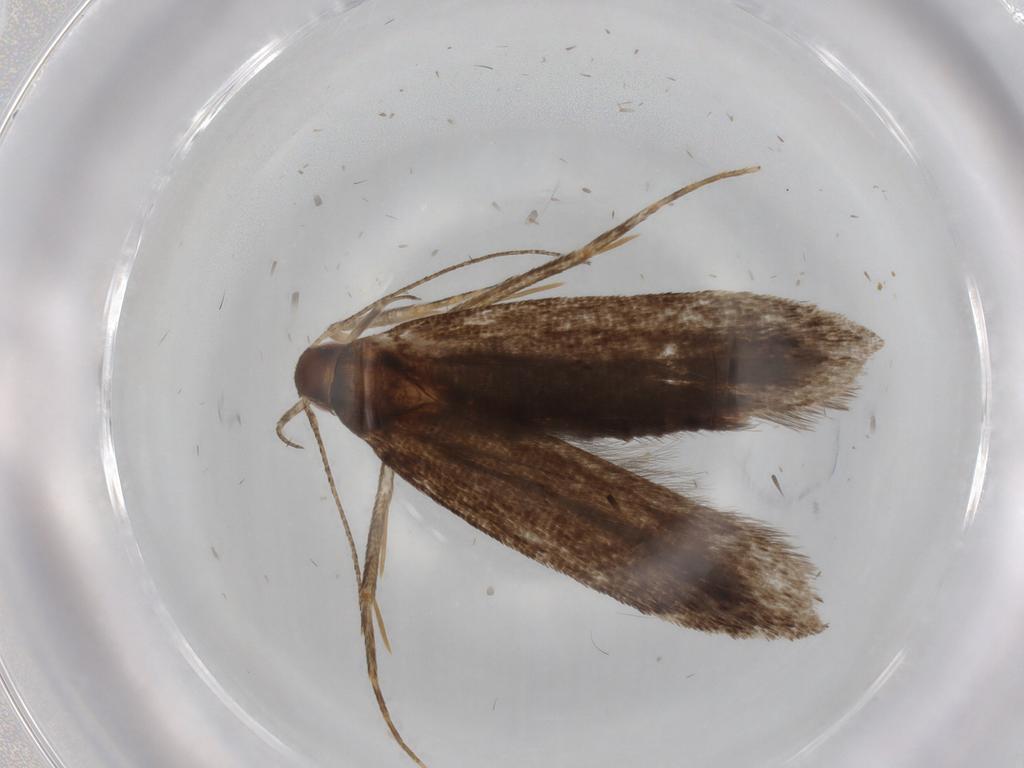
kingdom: Animalia
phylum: Arthropoda
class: Insecta
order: Lepidoptera
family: Gelechiidae
